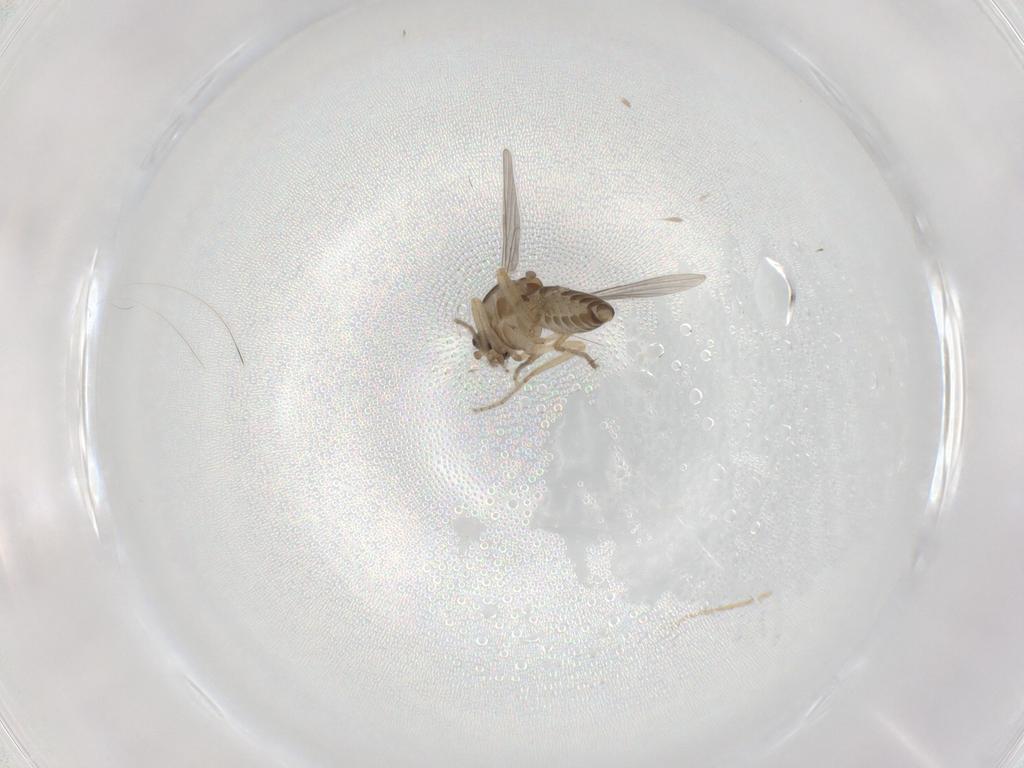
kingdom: Animalia
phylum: Arthropoda
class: Insecta
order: Diptera
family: Ceratopogonidae
